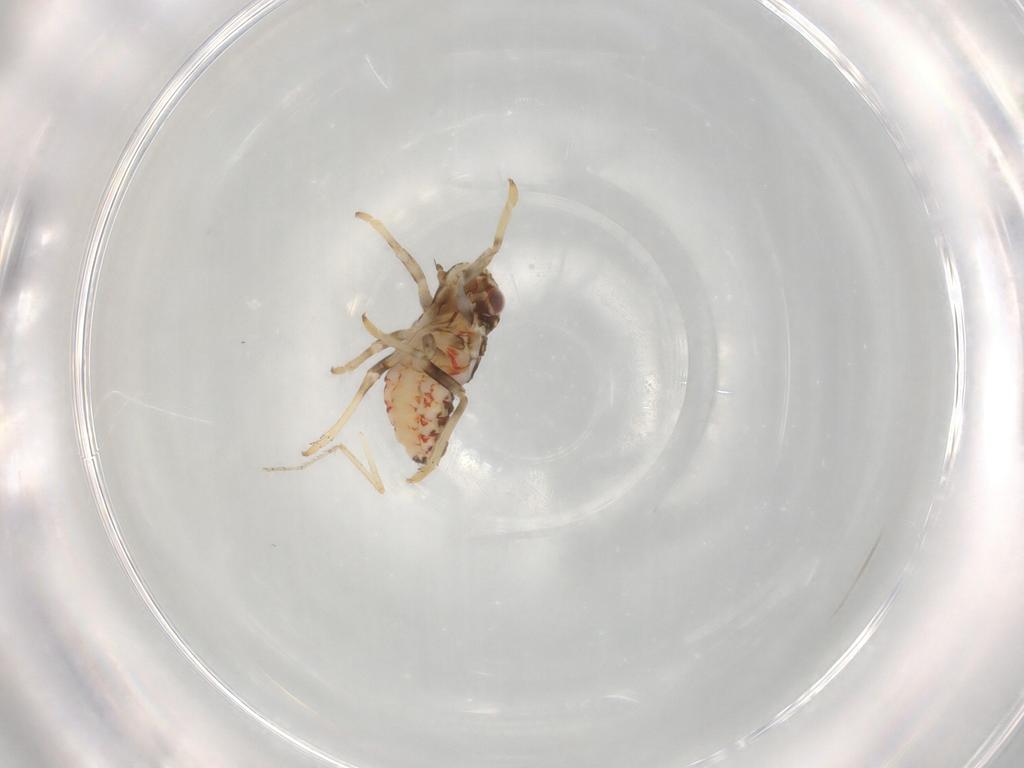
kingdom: Animalia
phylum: Arthropoda
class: Insecta
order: Hemiptera
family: Tropiduchidae
